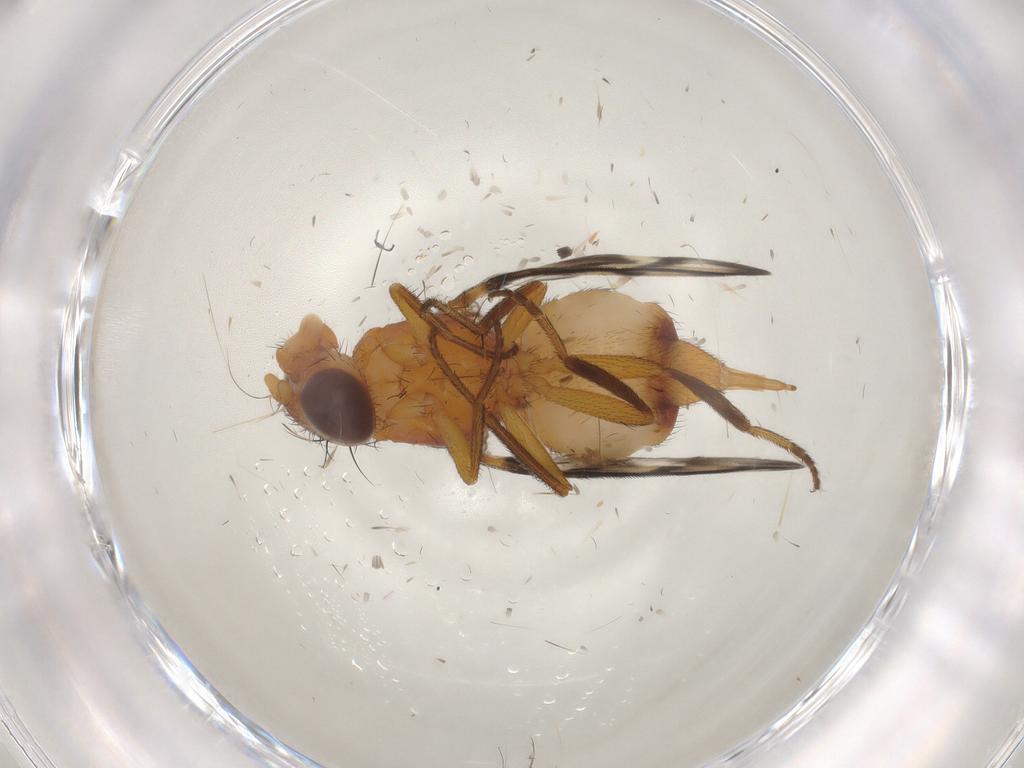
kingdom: Animalia
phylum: Arthropoda
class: Insecta
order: Diptera
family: Ulidiidae
